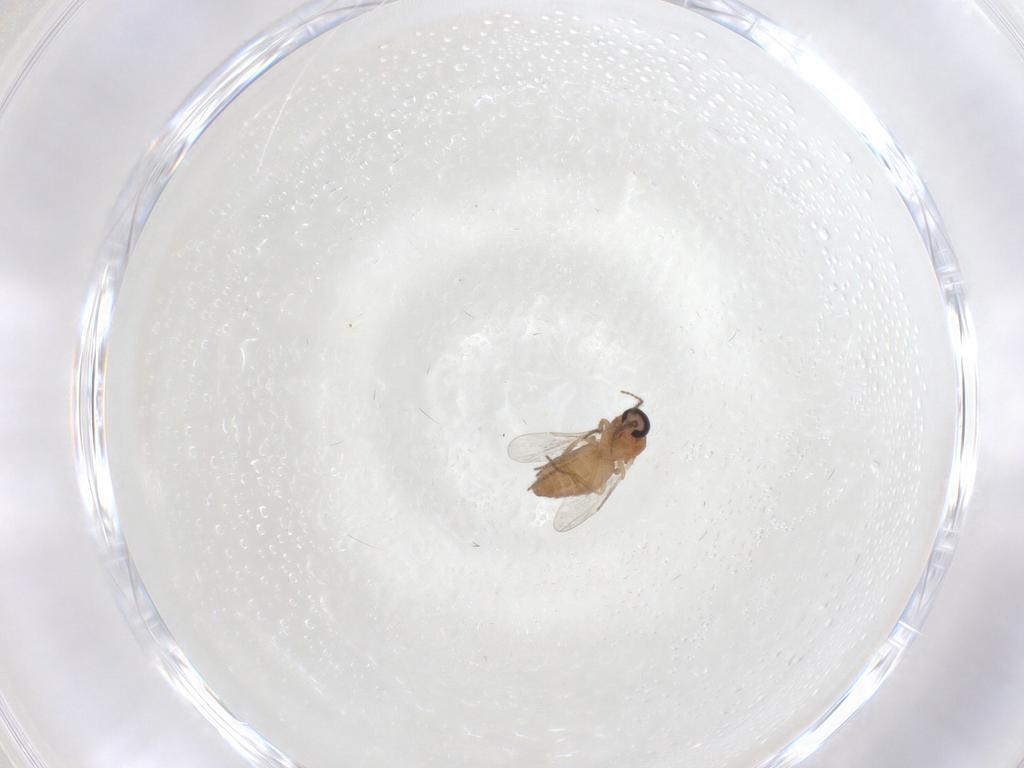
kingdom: Animalia
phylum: Arthropoda
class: Insecta
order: Diptera
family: Ceratopogonidae
